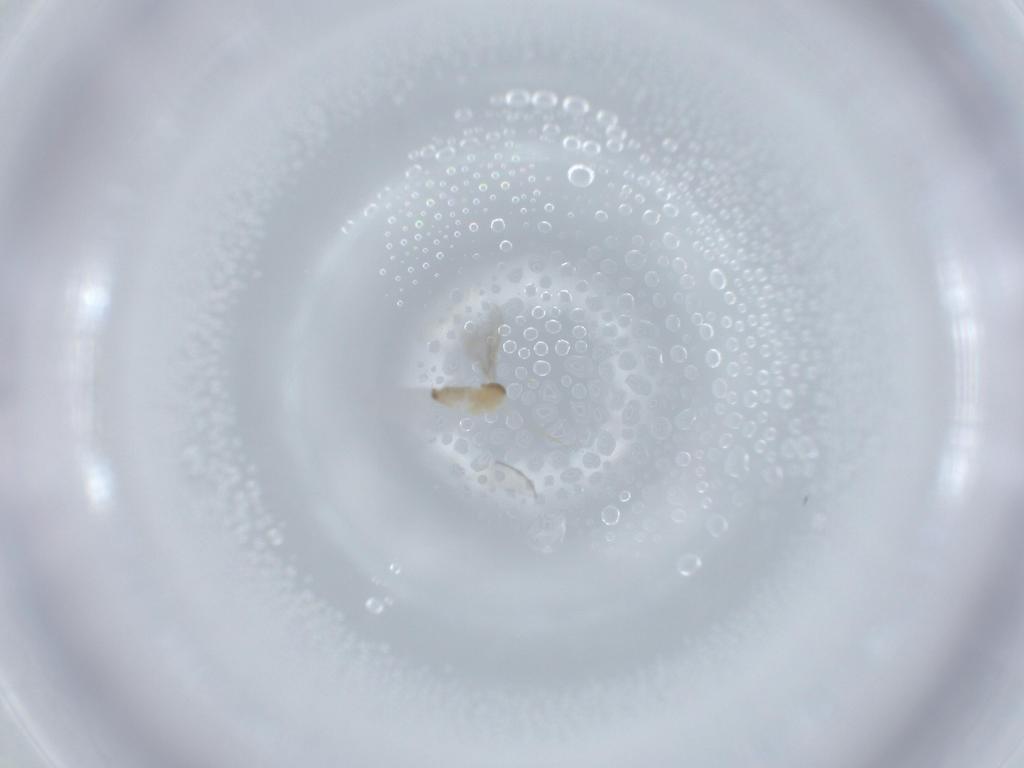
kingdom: Animalia
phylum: Arthropoda
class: Insecta
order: Diptera
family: Cecidomyiidae
